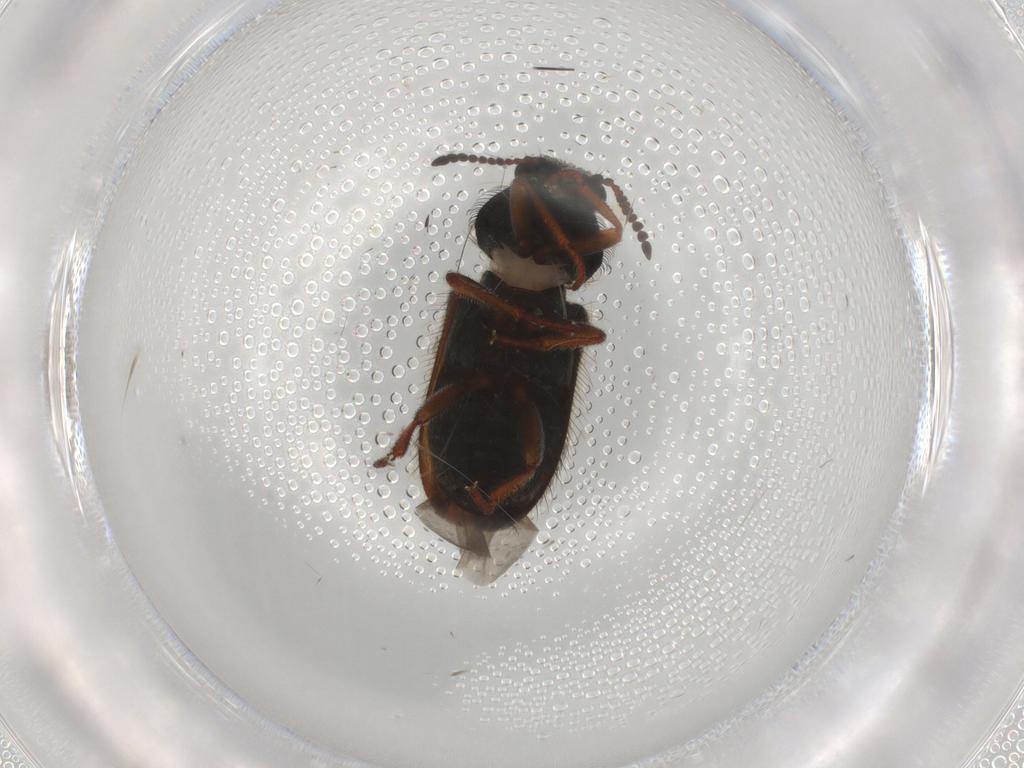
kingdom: Animalia
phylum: Arthropoda
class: Insecta
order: Coleoptera
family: Melyridae
